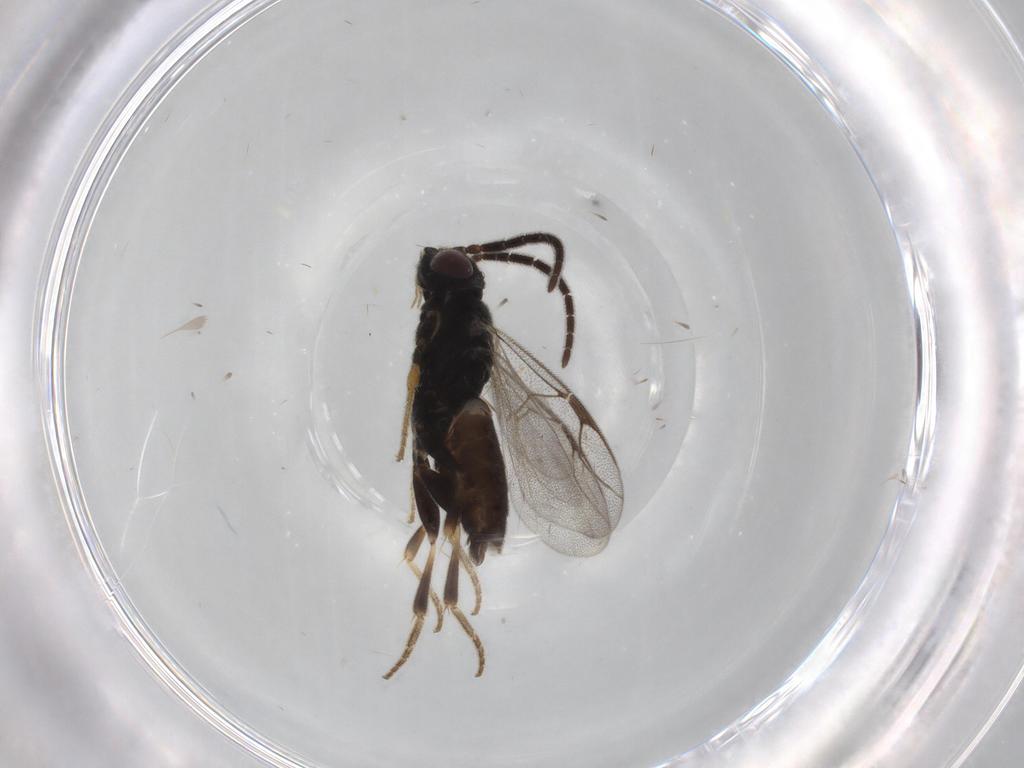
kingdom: Animalia
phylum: Arthropoda
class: Insecta
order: Hymenoptera
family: Dryinidae
